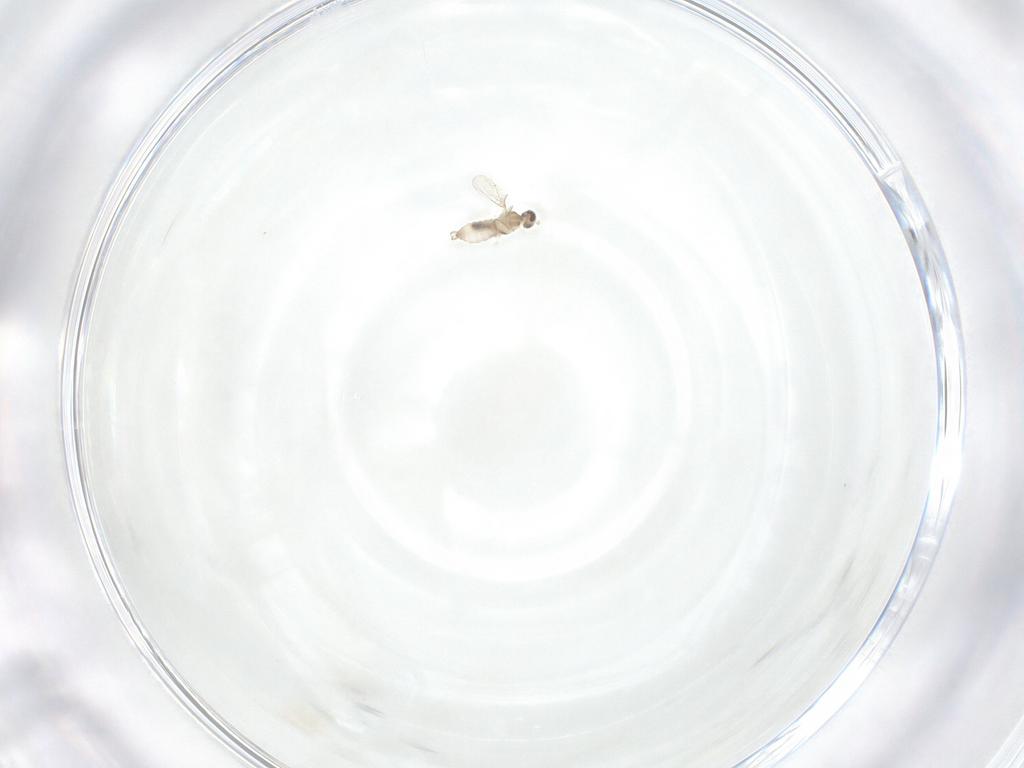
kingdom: Animalia
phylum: Arthropoda
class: Insecta
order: Diptera
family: Cecidomyiidae
